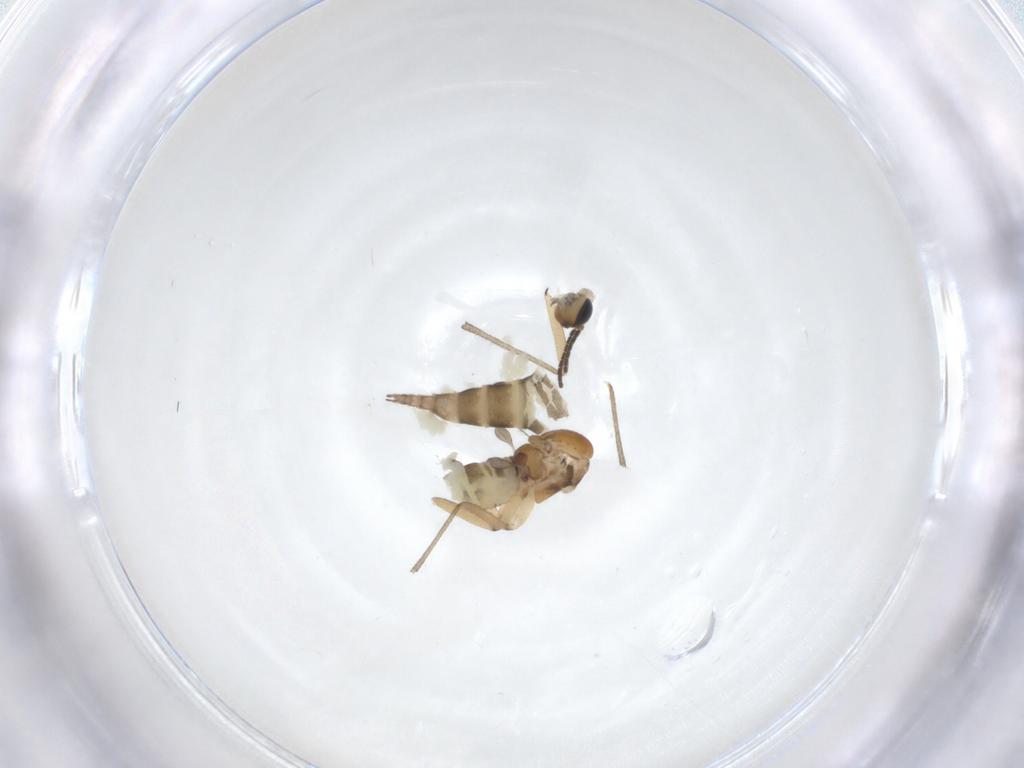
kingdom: Animalia
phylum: Arthropoda
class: Insecta
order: Diptera
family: Sciaridae
